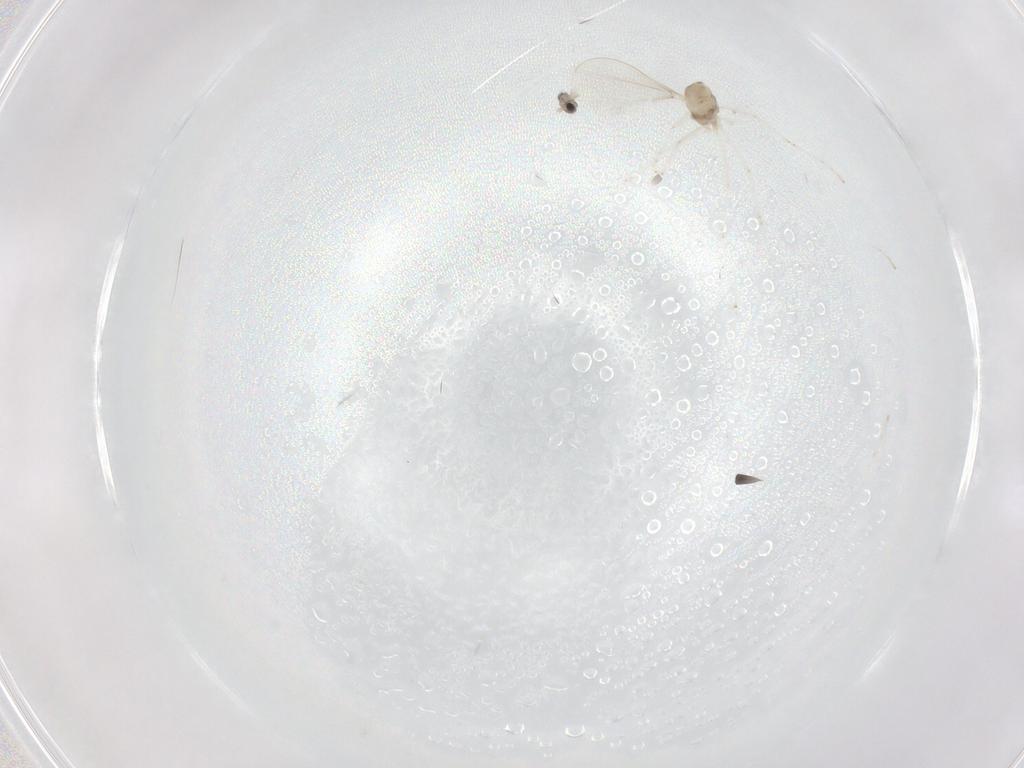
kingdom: Animalia
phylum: Arthropoda
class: Insecta
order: Diptera
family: Cecidomyiidae
